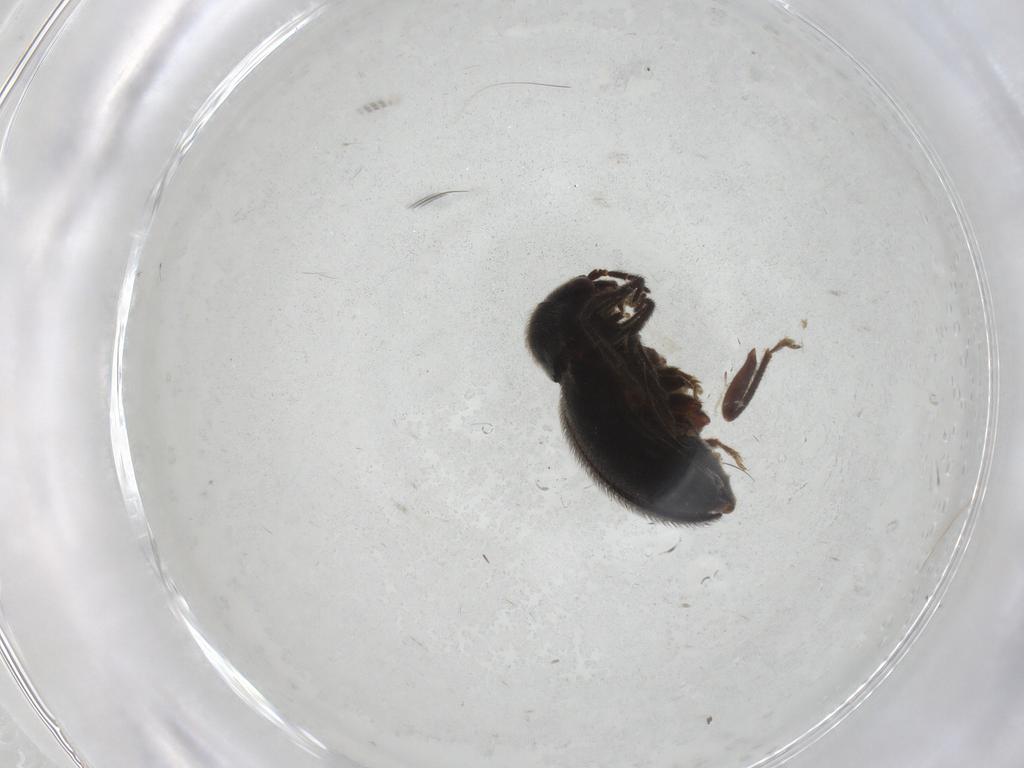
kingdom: Animalia
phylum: Arthropoda
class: Insecta
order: Coleoptera
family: Ptilodactylidae
